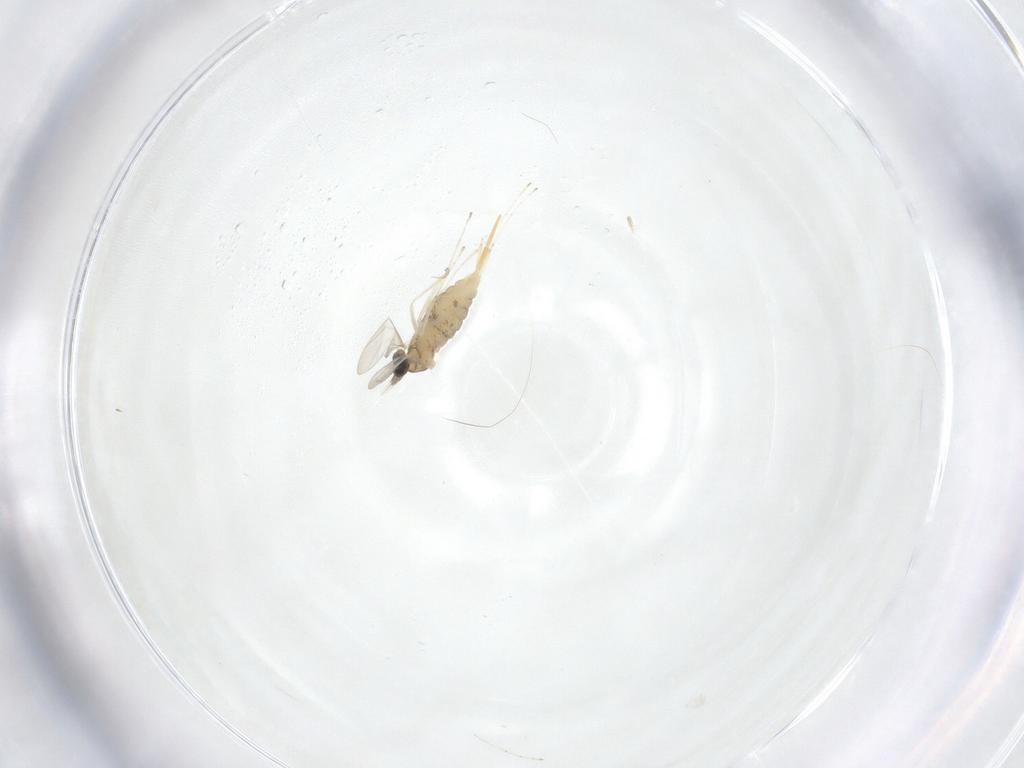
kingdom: Animalia
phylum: Arthropoda
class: Insecta
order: Diptera
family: Cecidomyiidae
